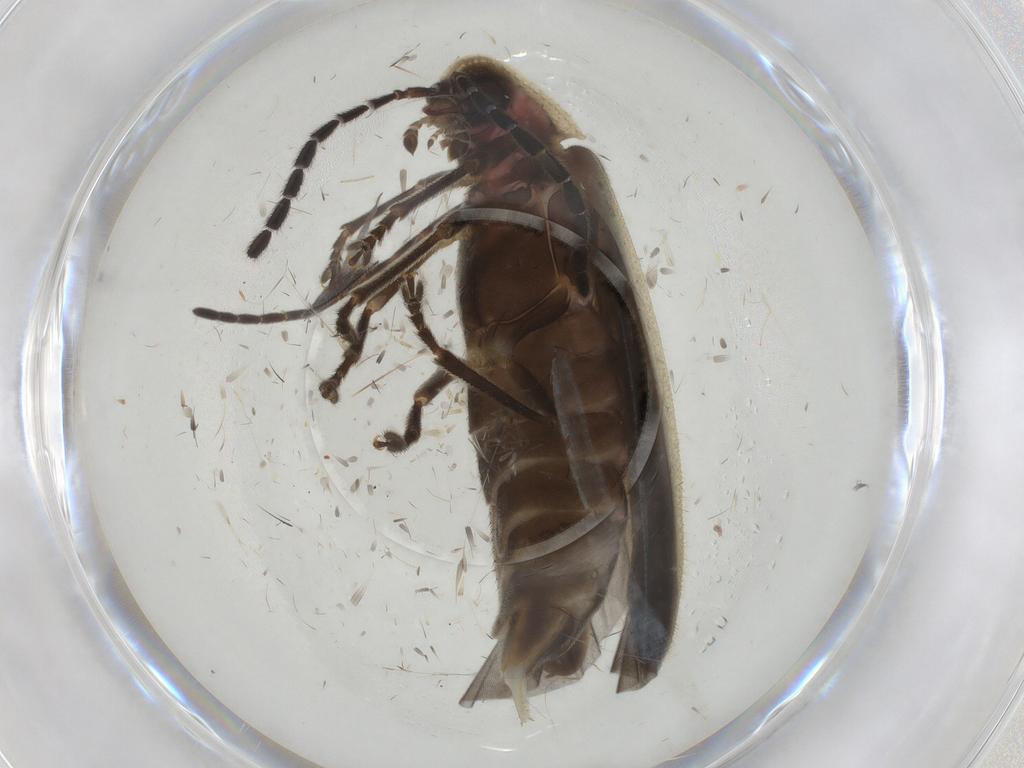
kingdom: Animalia
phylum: Arthropoda
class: Insecta
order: Coleoptera
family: Lampyridae
